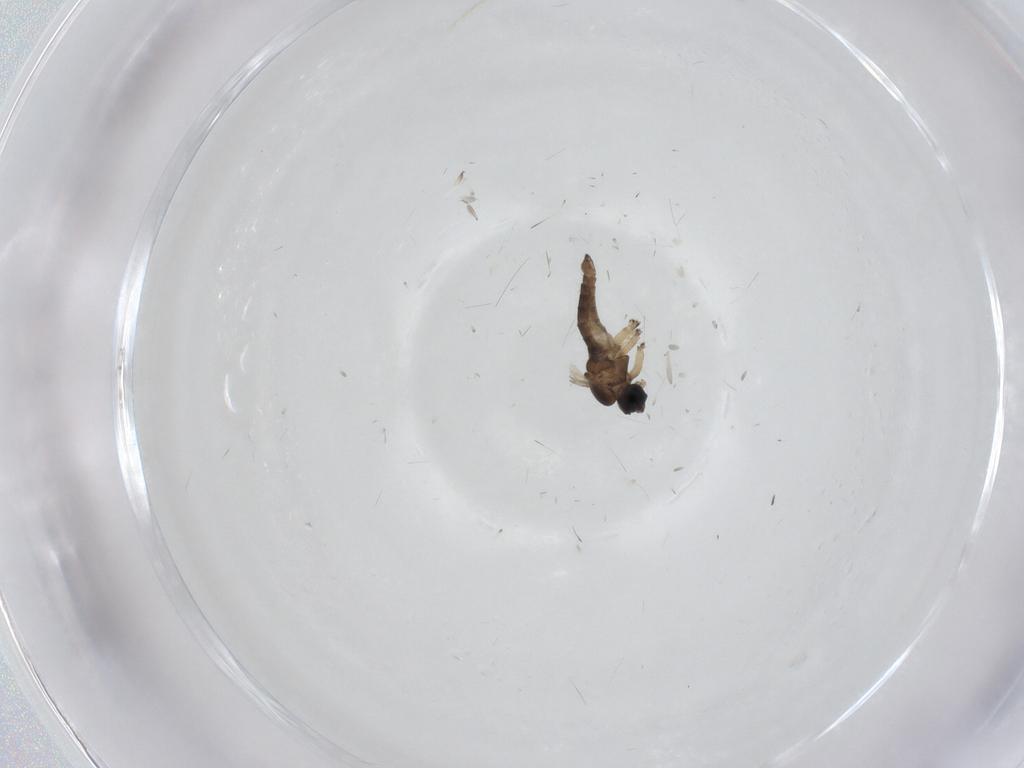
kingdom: Animalia
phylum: Arthropoda
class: Insecta
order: Diptera
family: Sciaridae
